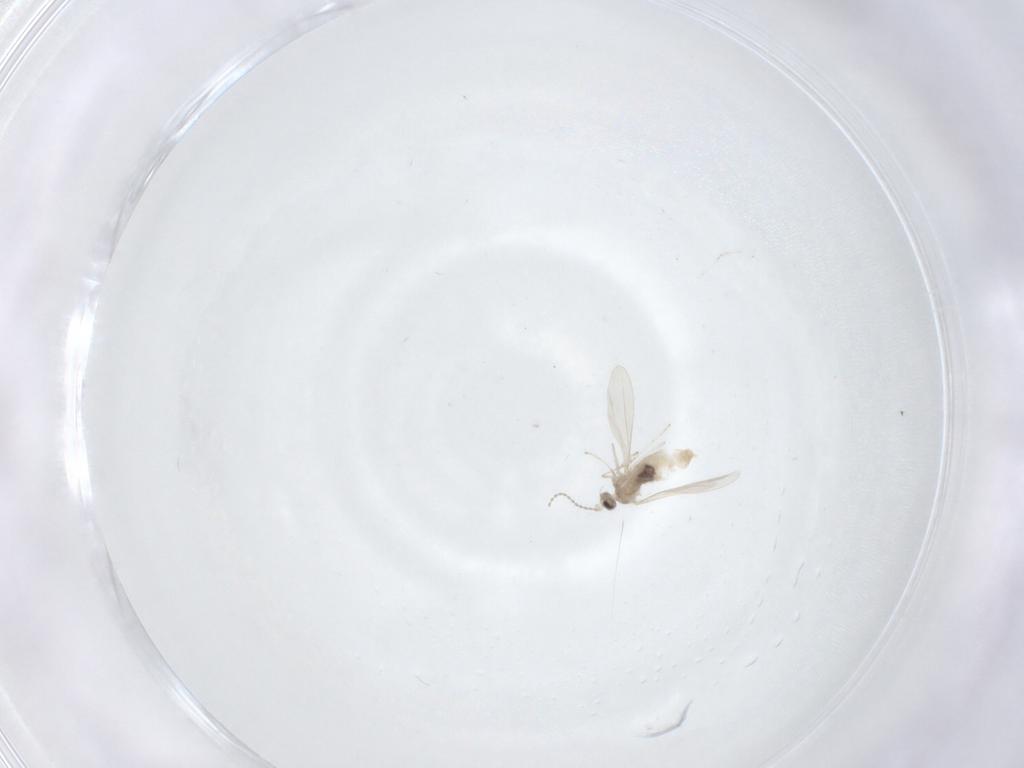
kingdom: Animalia
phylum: Arthropoda
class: Insecta
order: Diptera
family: Cecidomyiidae
